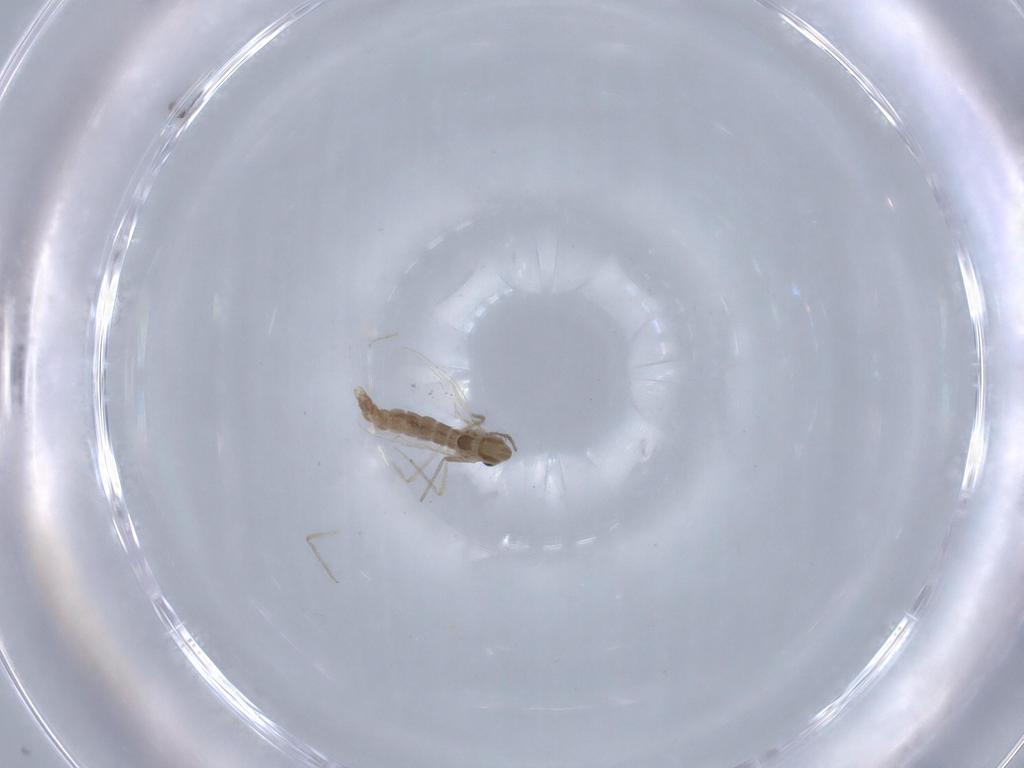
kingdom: Animalia
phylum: Arthropoda
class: Insecta
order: Diptera
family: Chironomidae
